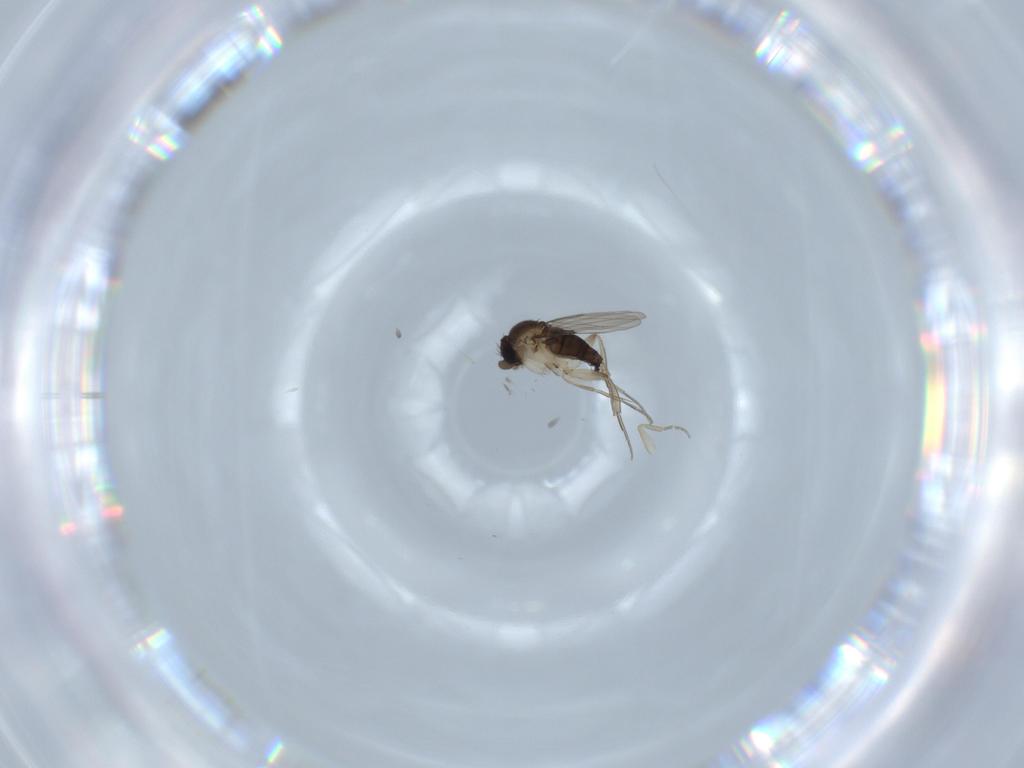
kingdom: Animalia
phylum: Arthropoda
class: Insecta
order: Diptera
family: Phoridae
